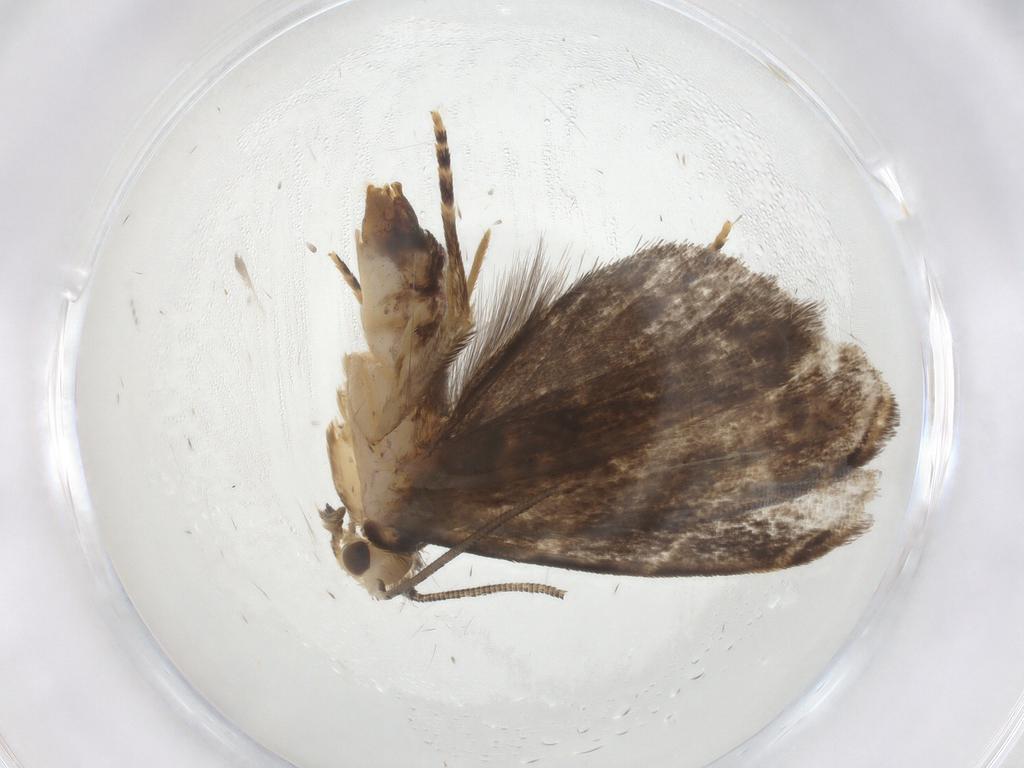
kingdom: Animalia
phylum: Arthropoda
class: Insecta
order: Lepidoptera
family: Dryadaulidae
